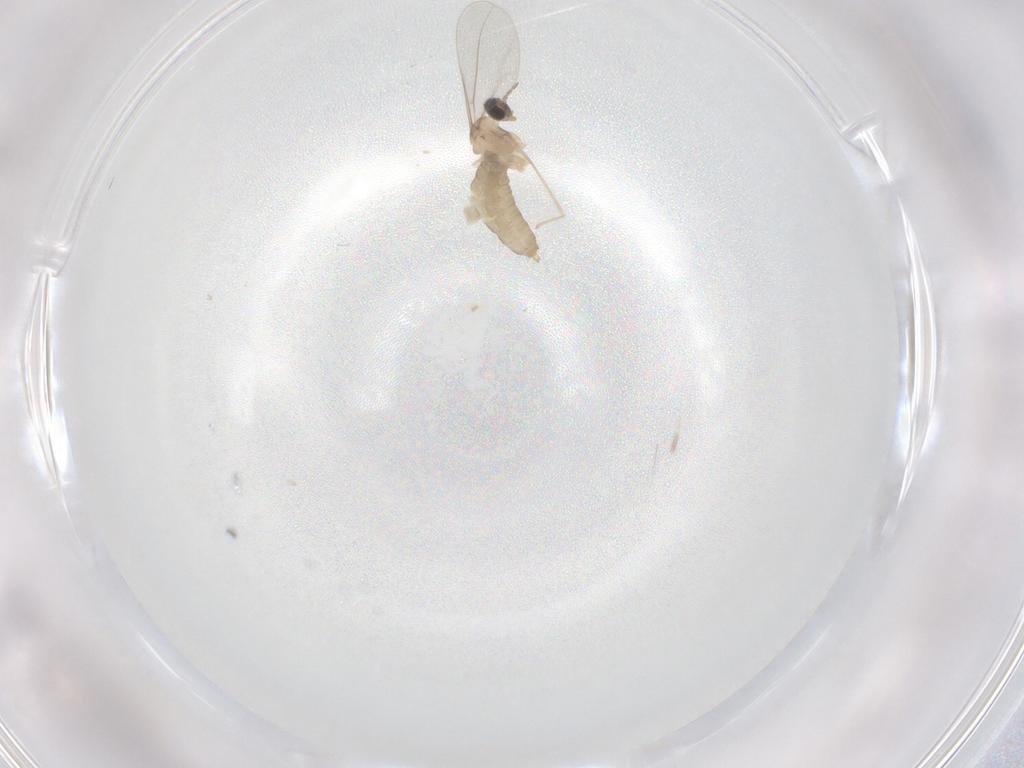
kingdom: Animalia
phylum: Arthropoda
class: Insecta
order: Diptera
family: Cecidomyiidae
